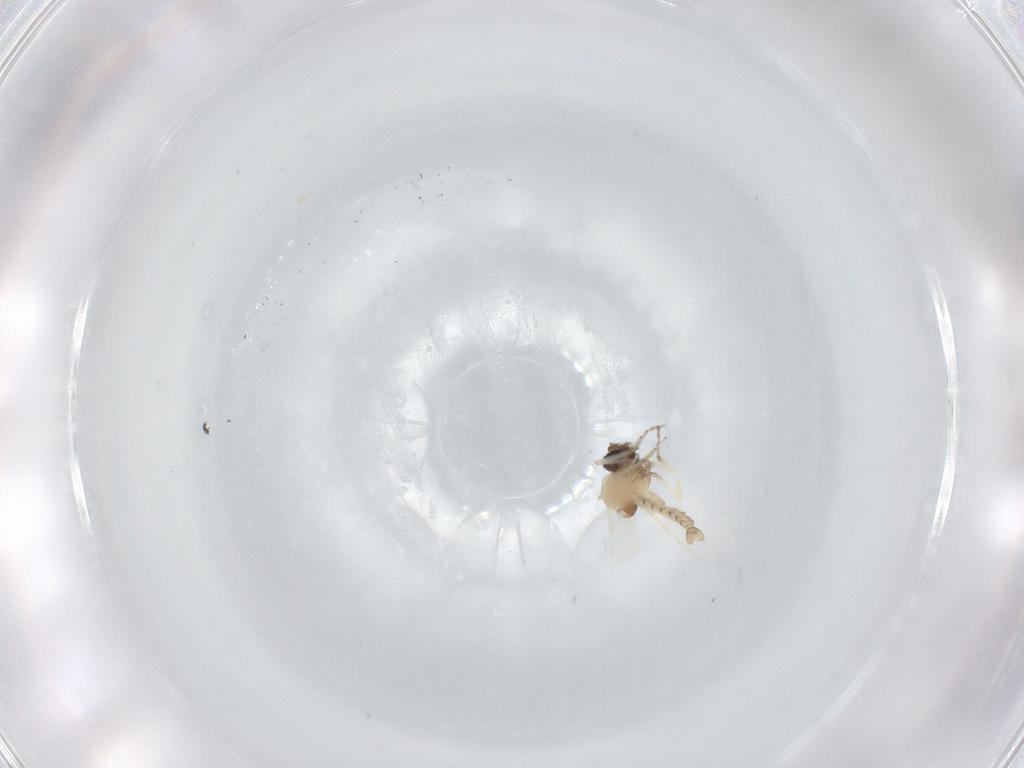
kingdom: Animalia
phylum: Arthropoda
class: Insecta
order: Diptera
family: Ceratopogonidae
